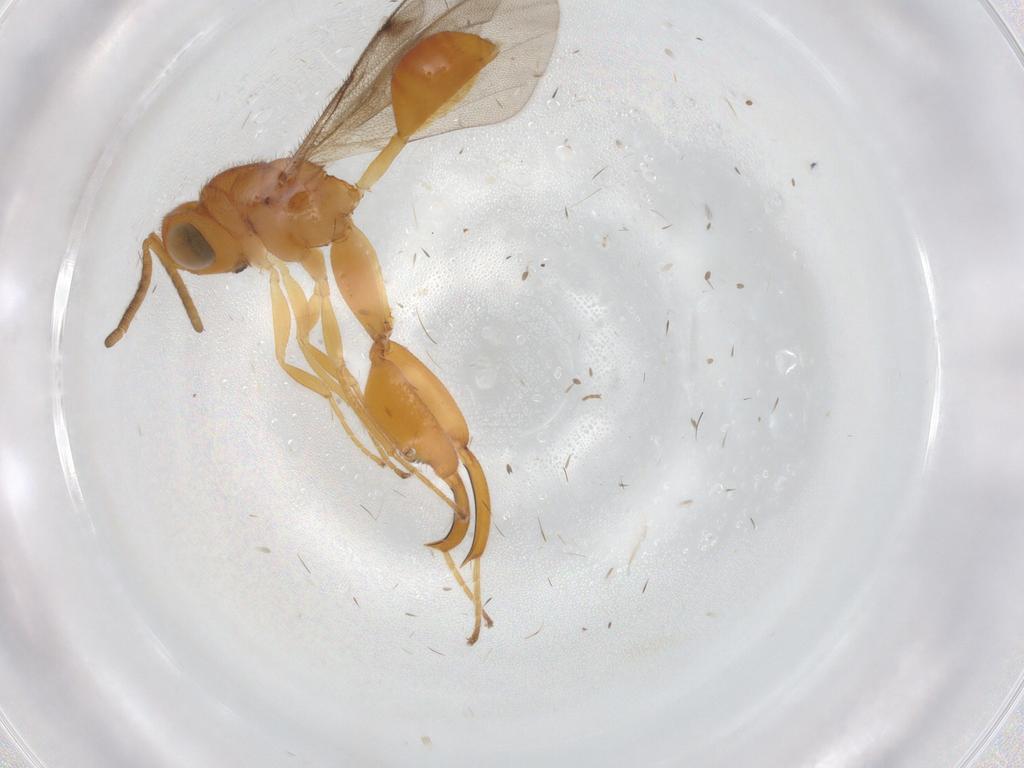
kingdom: Animalia
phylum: Arthropoda
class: Insecta
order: Hymenoptera
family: Chalcididae
